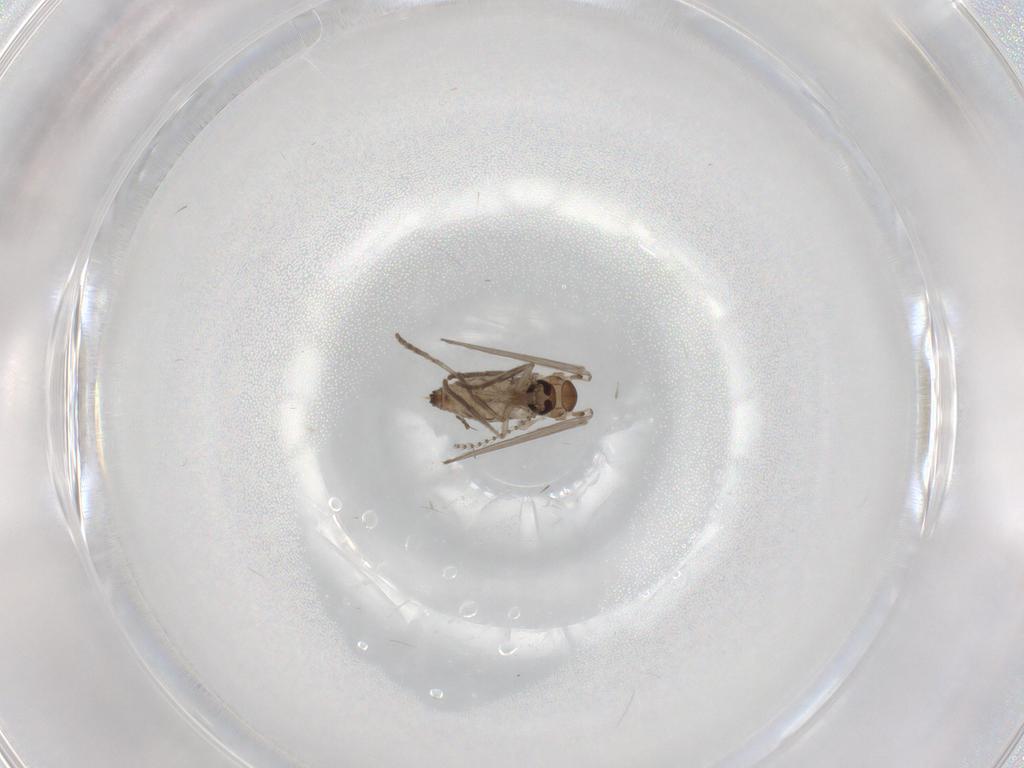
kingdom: Animalia
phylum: Arthropoda
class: Insecta
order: Diptera
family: Psychodidae
